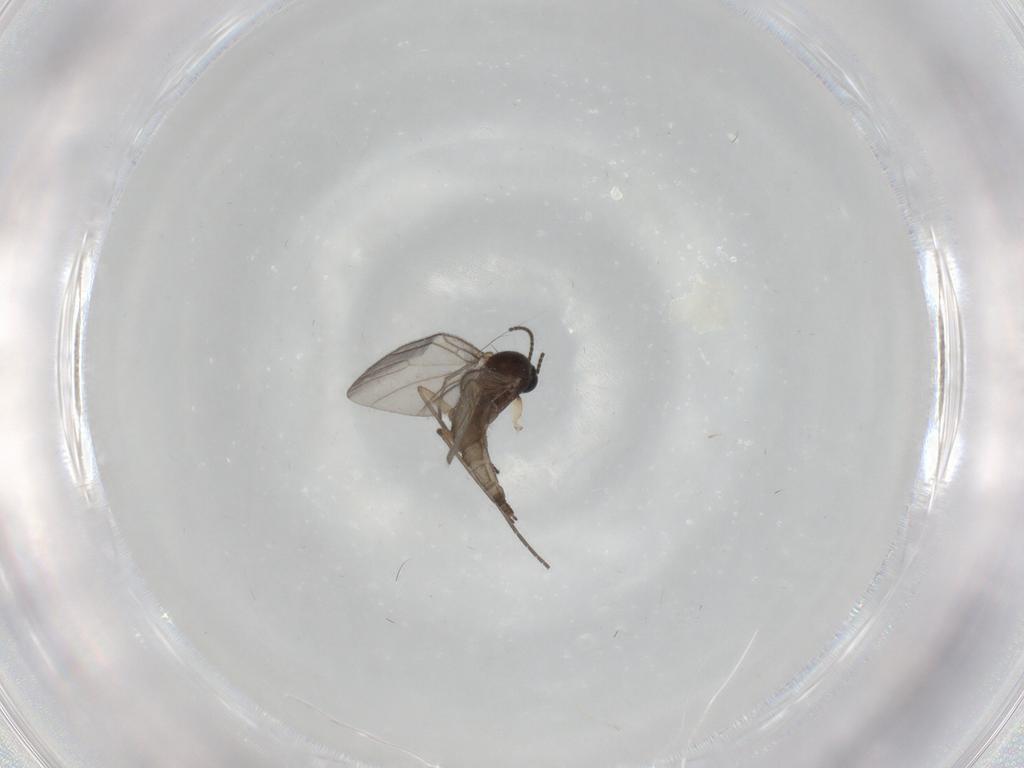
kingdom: Animalia
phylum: Arthropoda
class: Insecta
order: Diptera
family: Sciaridae
